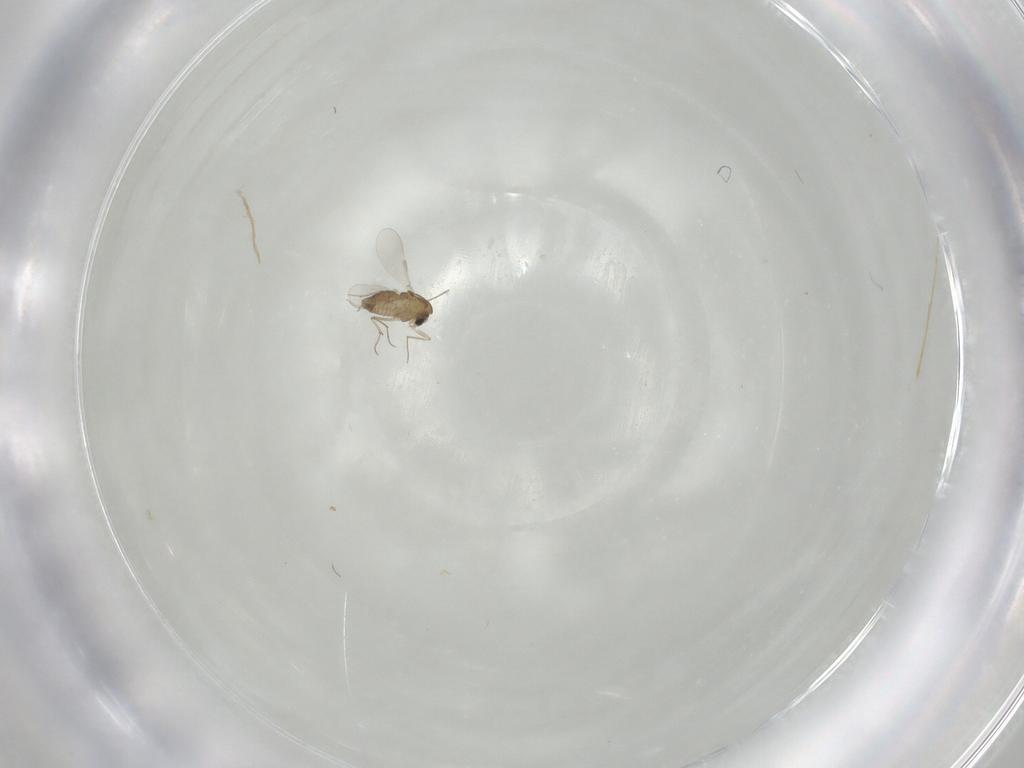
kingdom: Animalia
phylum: Arthropoda
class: Insecta
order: Diptera
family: Chironomidae
